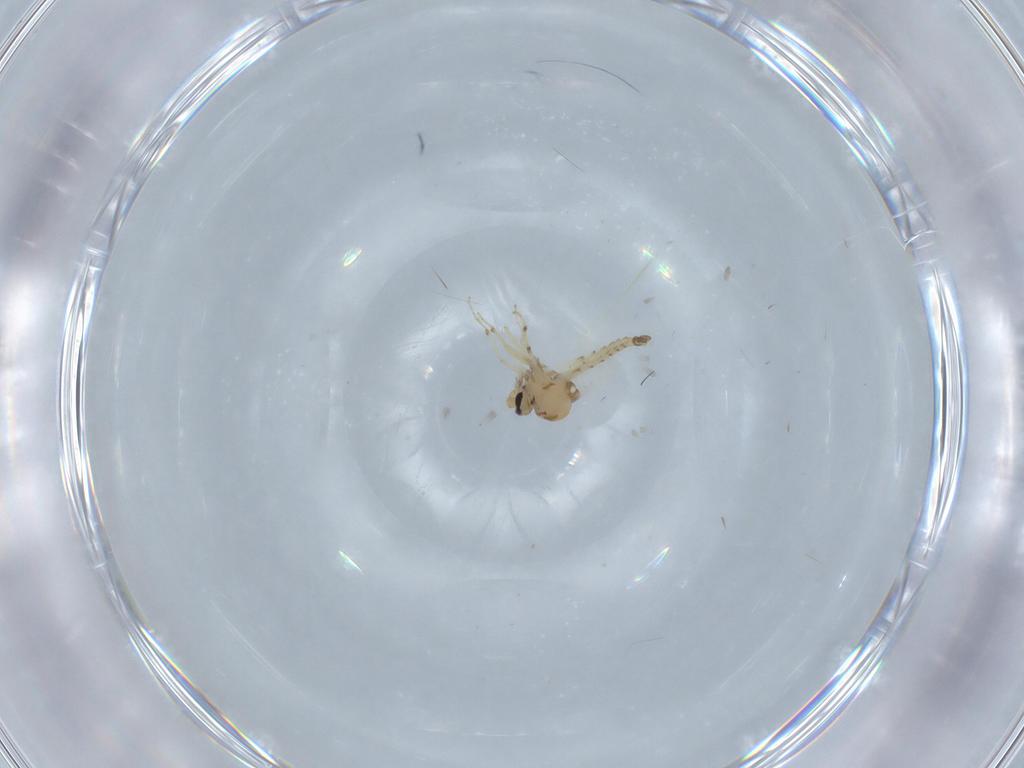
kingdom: Animalia
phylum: Arthropoda
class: Insecta
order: Diptera
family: Ceratopogonidae
